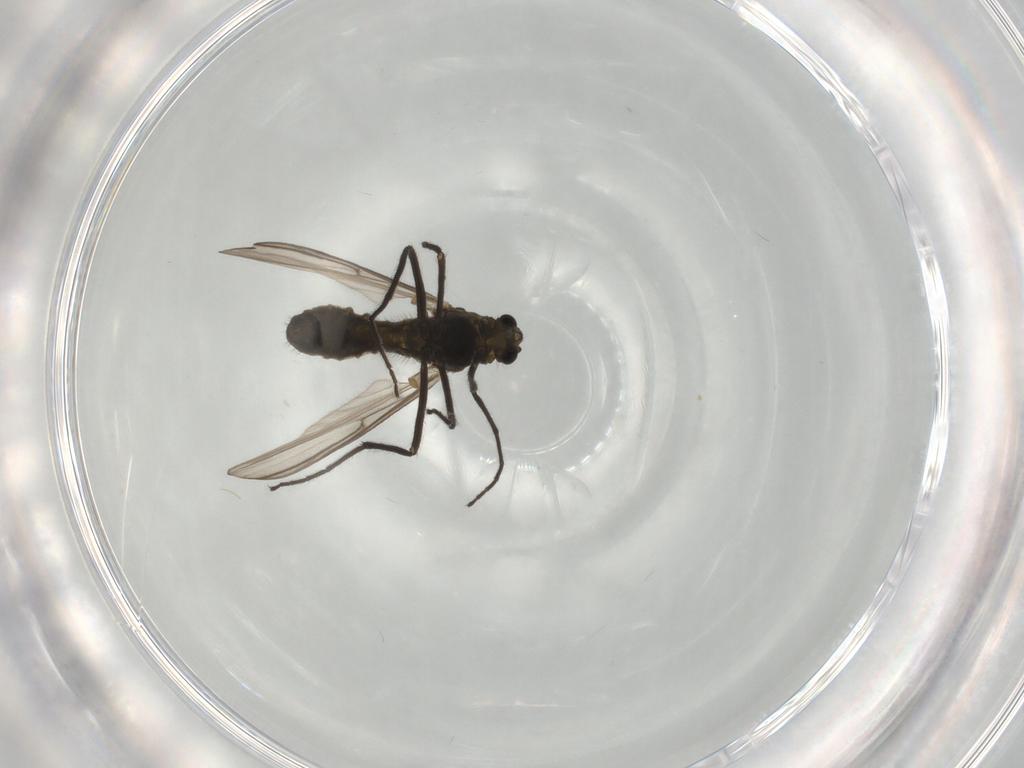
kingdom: Animalia
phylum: Arthropoda
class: Insecta
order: Diptera
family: Chironomidae
